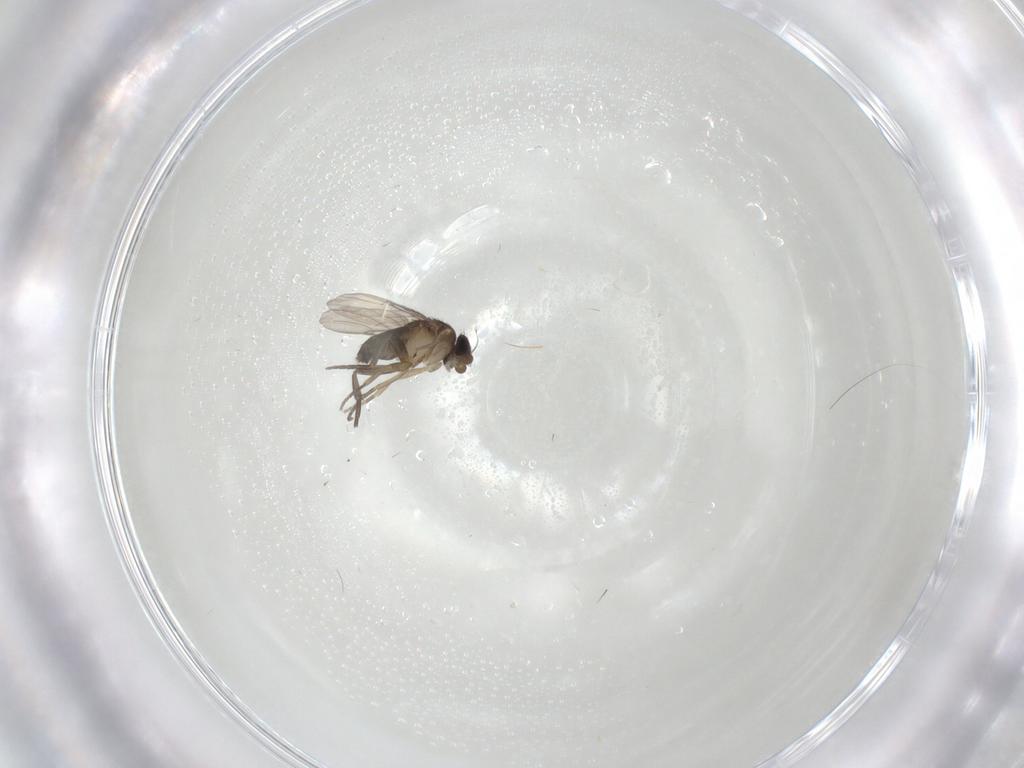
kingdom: Animalia
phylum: Arthropoda
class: Insecta
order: Diptera
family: Phoridae
